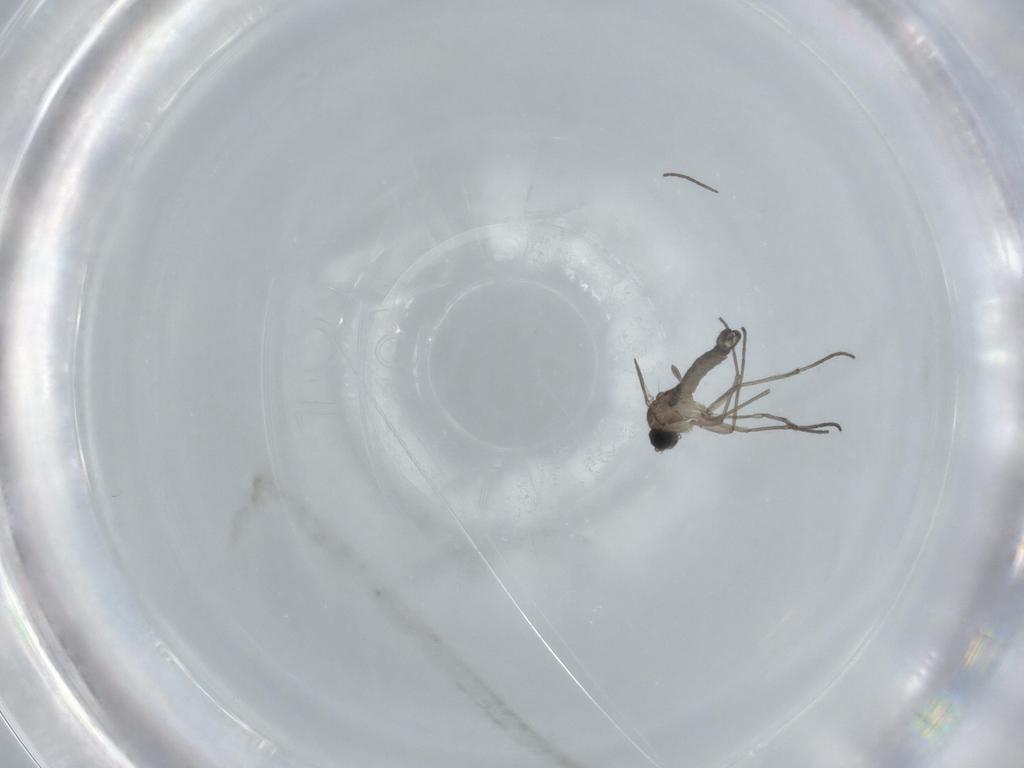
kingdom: Animalia
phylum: Arthropoda
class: Insecta
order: Diptera
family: Sciaridae
